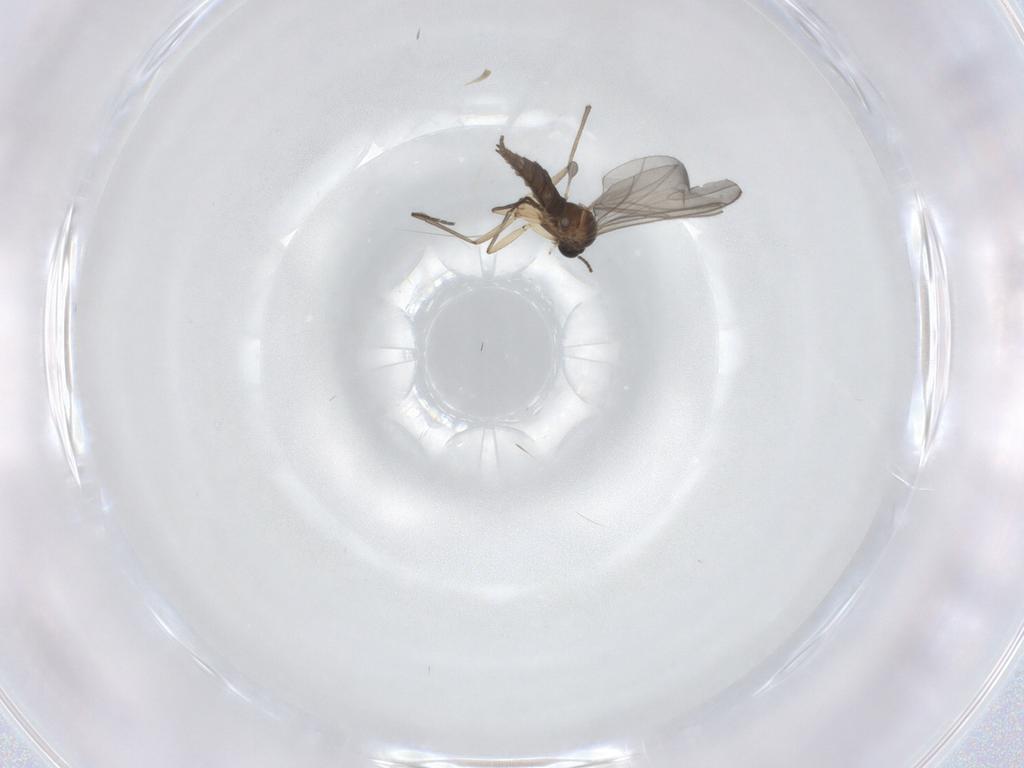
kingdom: Animalia
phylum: Arthropoda
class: Insecta
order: Diptera
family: Sciaridae
